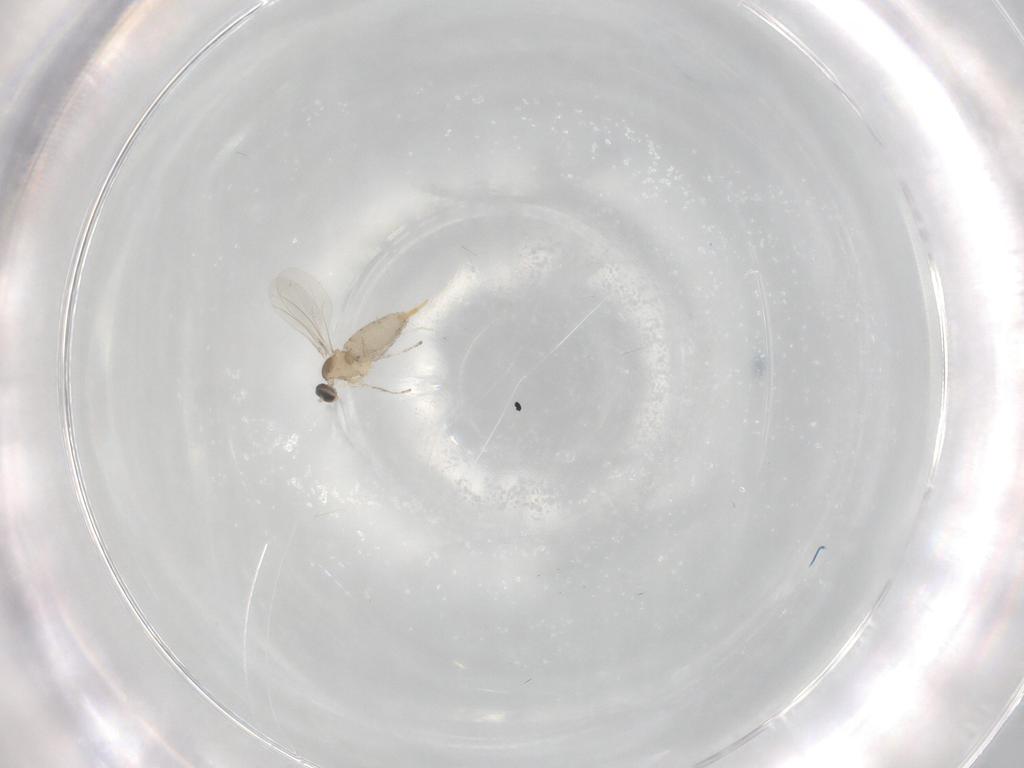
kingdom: Animalia
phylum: Arthropoda
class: Insecta
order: Diptera
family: Cecidomyiidae
